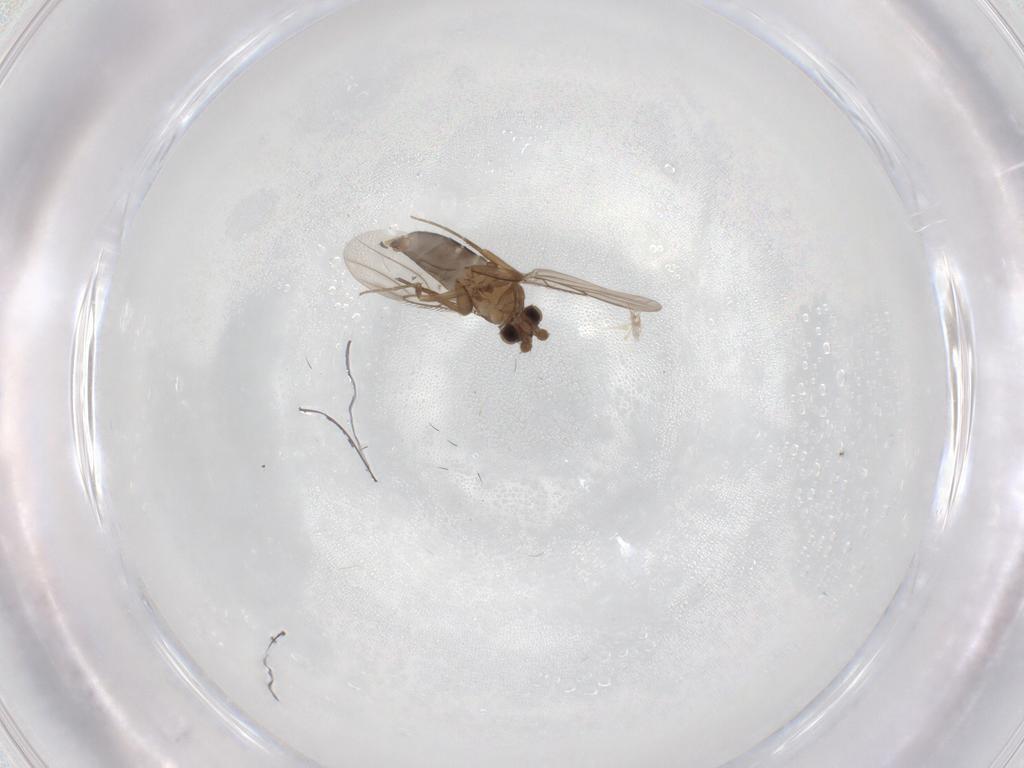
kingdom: Animalia
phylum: Arthropoda
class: Insecta
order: Diptera
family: Chironomidae
